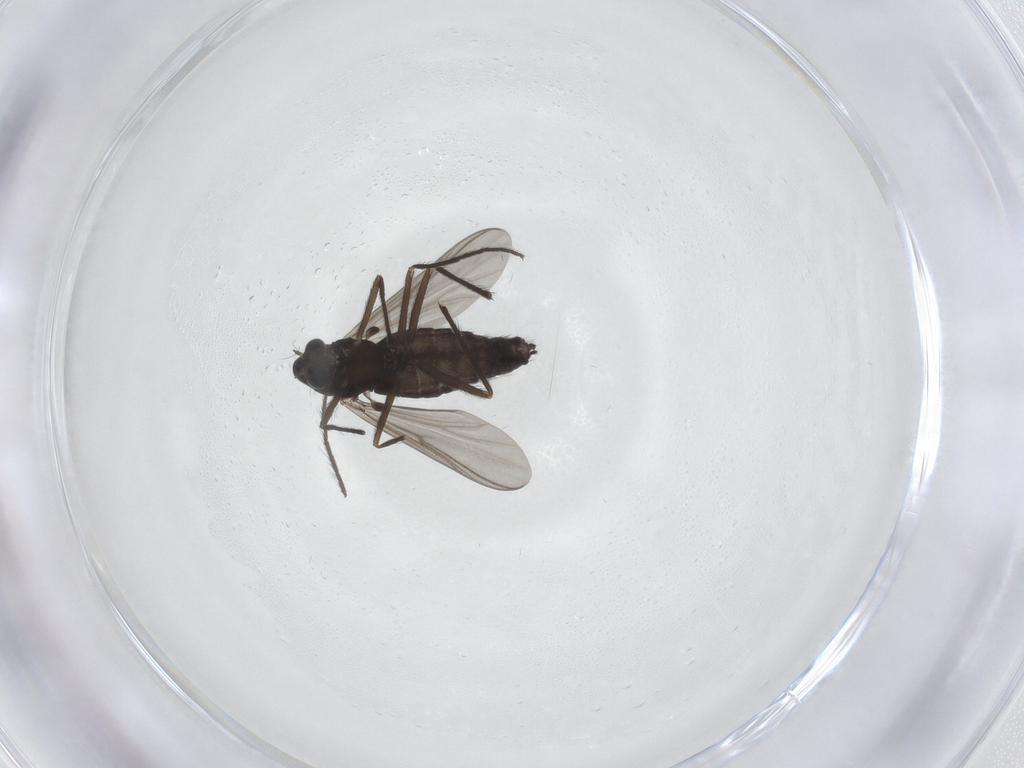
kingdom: Animalia
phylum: Arthropoda
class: Insecta
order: Diptera
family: Chironomidae
